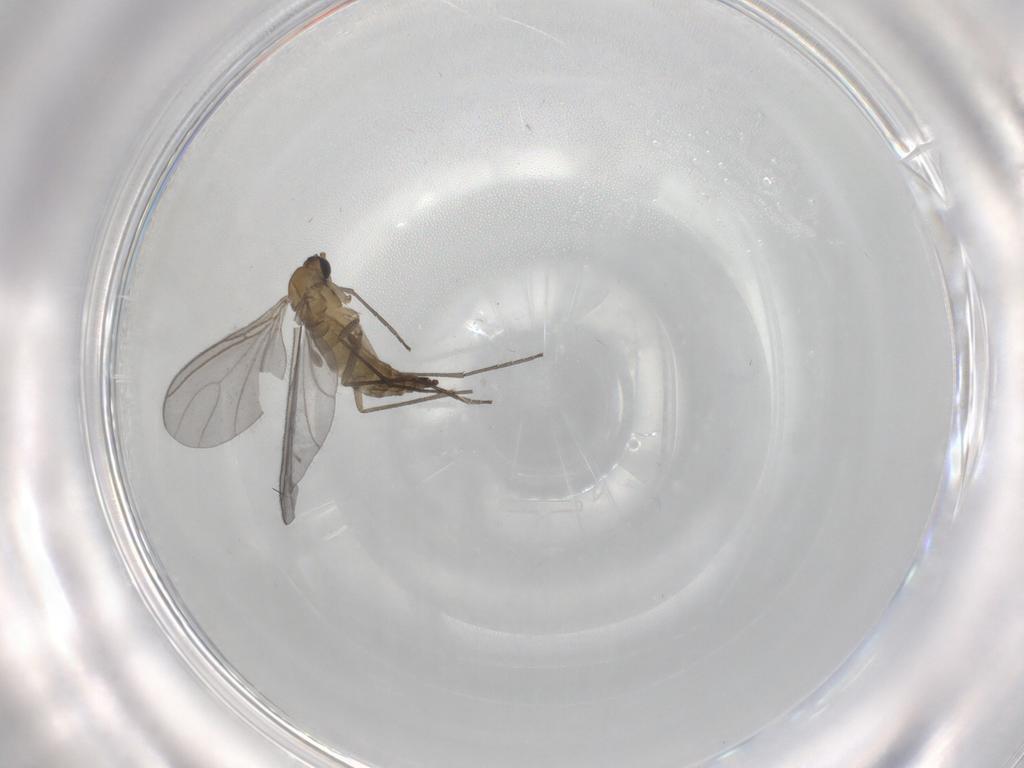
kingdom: Animalia
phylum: Arthropoda
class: Insecta
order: Diptera
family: Sciaridae
